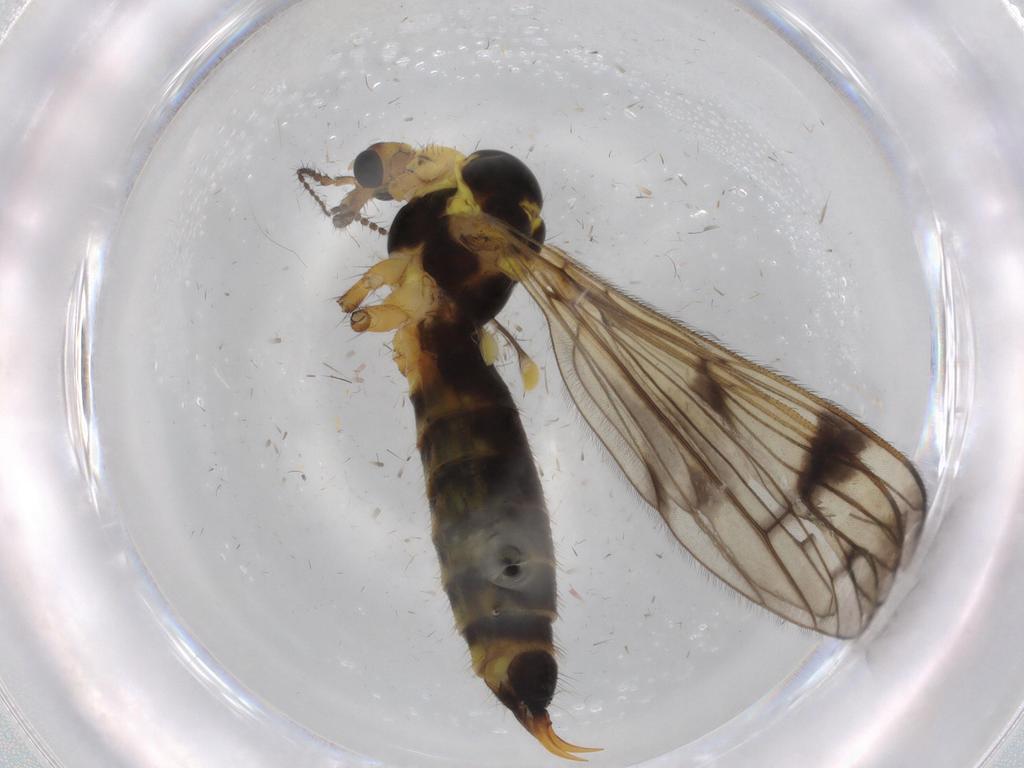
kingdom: Animalia
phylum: Arthropoda
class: Insecta
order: Diptera
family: Limoniidae
